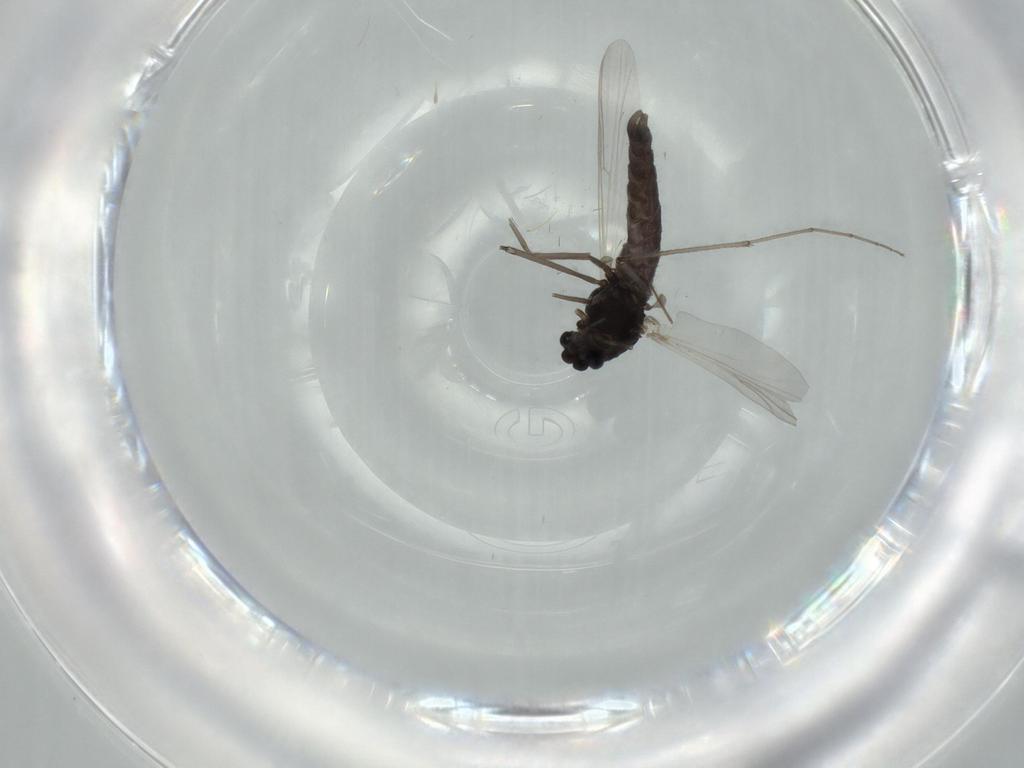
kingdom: Animalia
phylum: Arthropoda
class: Insecta
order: Diptera
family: Chironomidae
